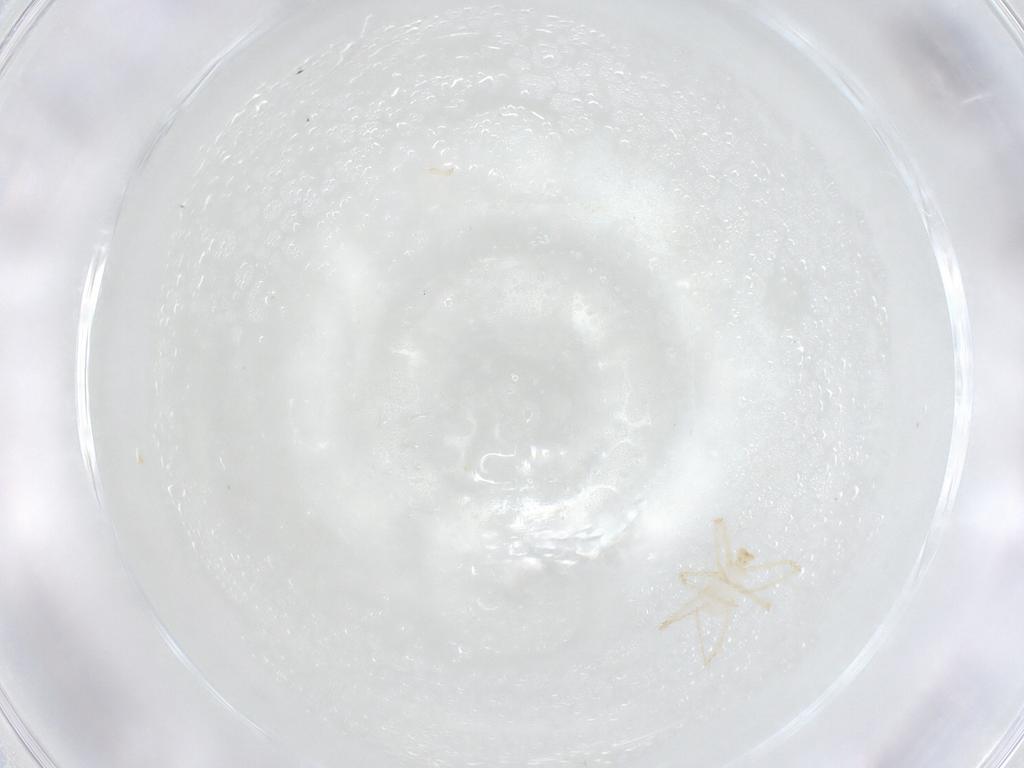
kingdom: Animalia
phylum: Arthropoda
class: Arachnida
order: Trombidiformes
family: Erythraeidae
